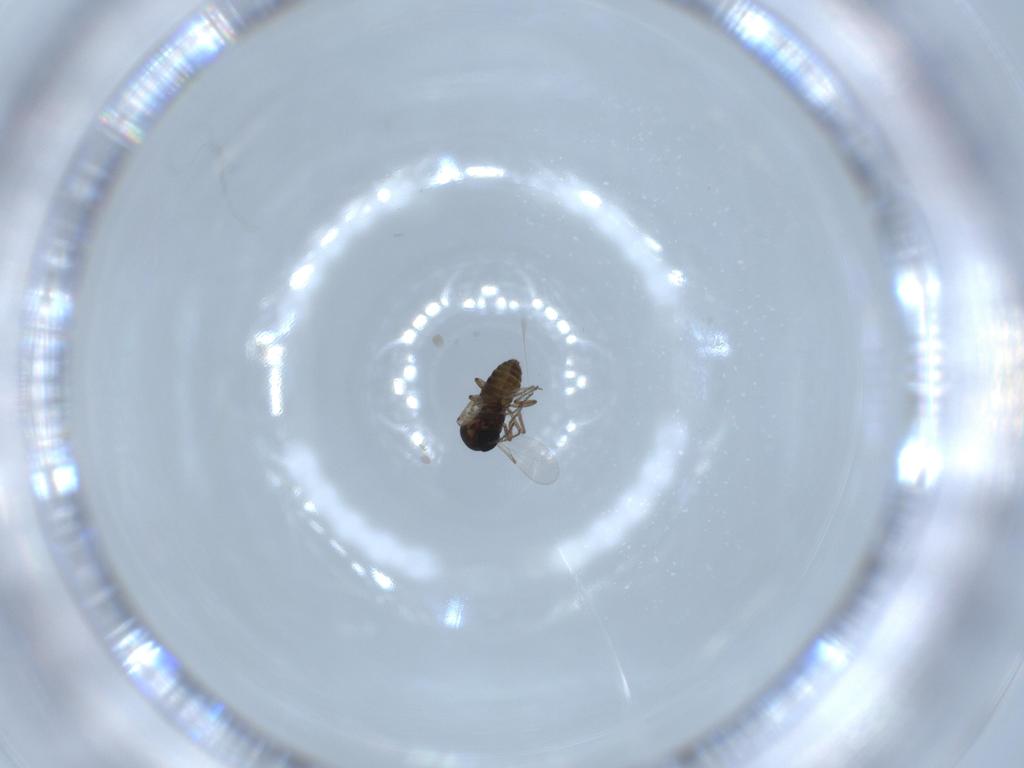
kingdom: Animalia
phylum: Arthropoda
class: Insecta
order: Diptera
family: Ceratopogonidae
